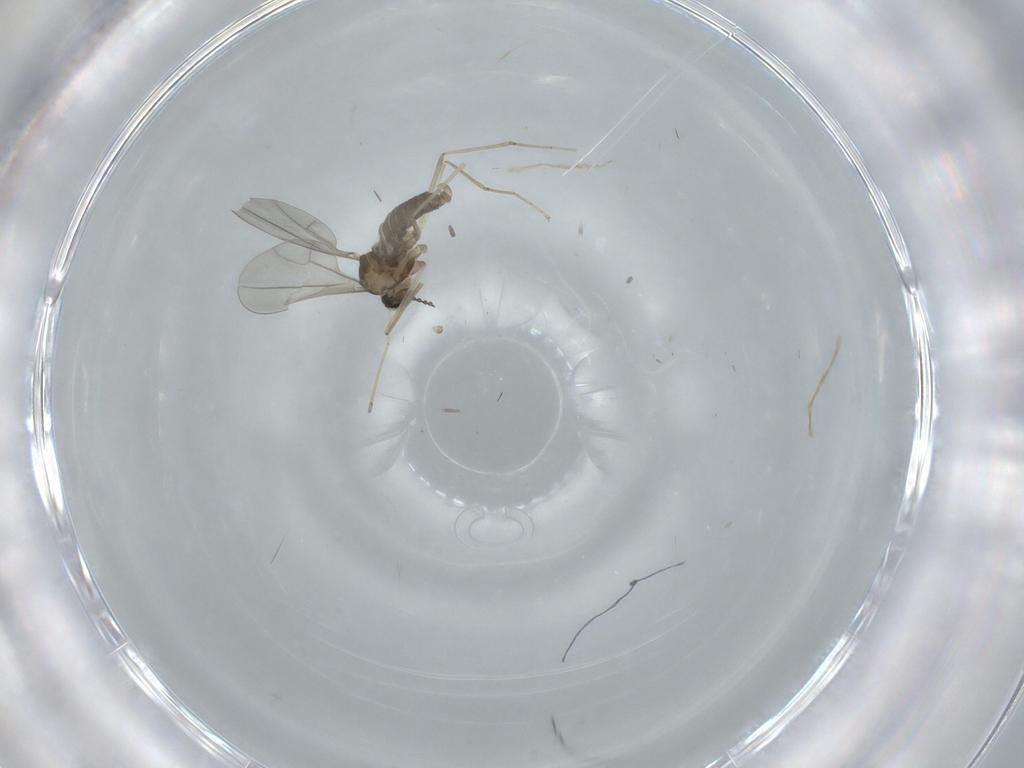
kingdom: Animalia
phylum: Arthropoda
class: Insecta
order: Diptera
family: Cecidomyiidae
